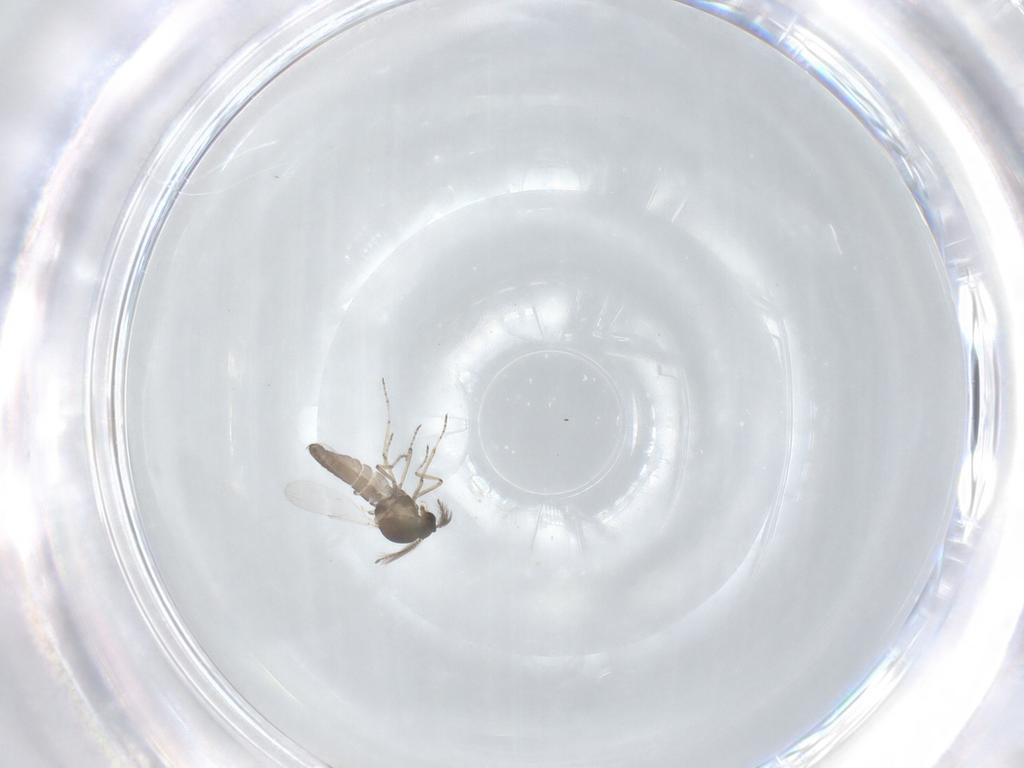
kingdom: Animalia
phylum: Arthropoda
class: Insecta
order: Diptera
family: Ceratopogonidae
